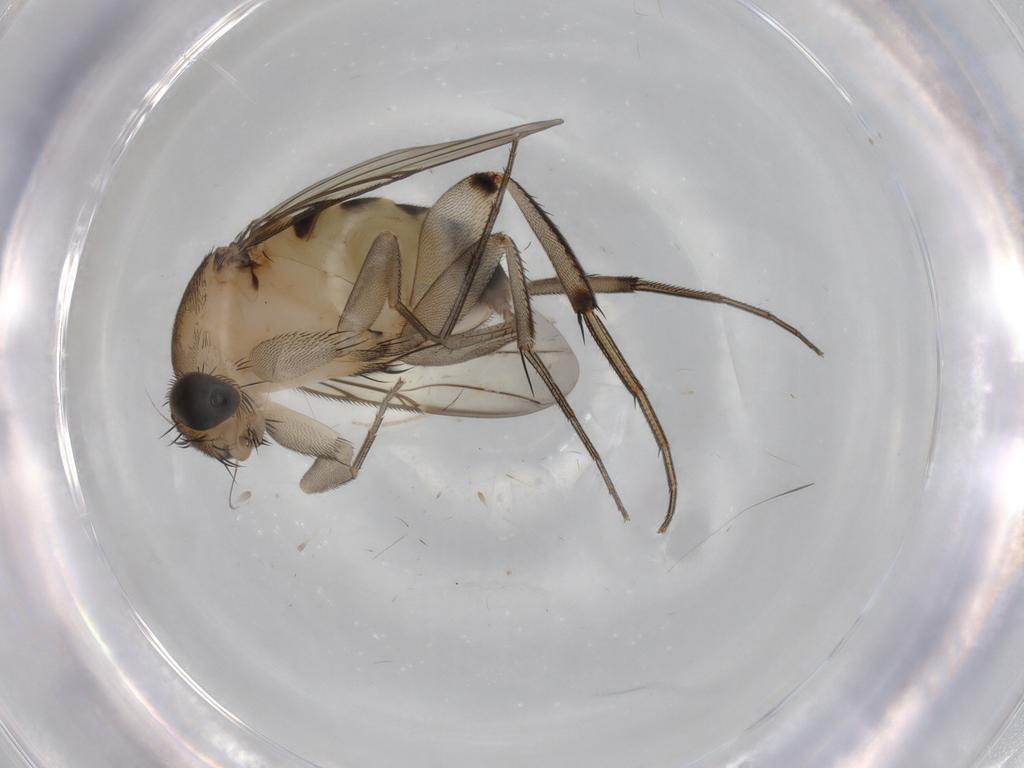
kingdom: Animalia
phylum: Arthropoda
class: Insecta
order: Diptera
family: Phoridae
